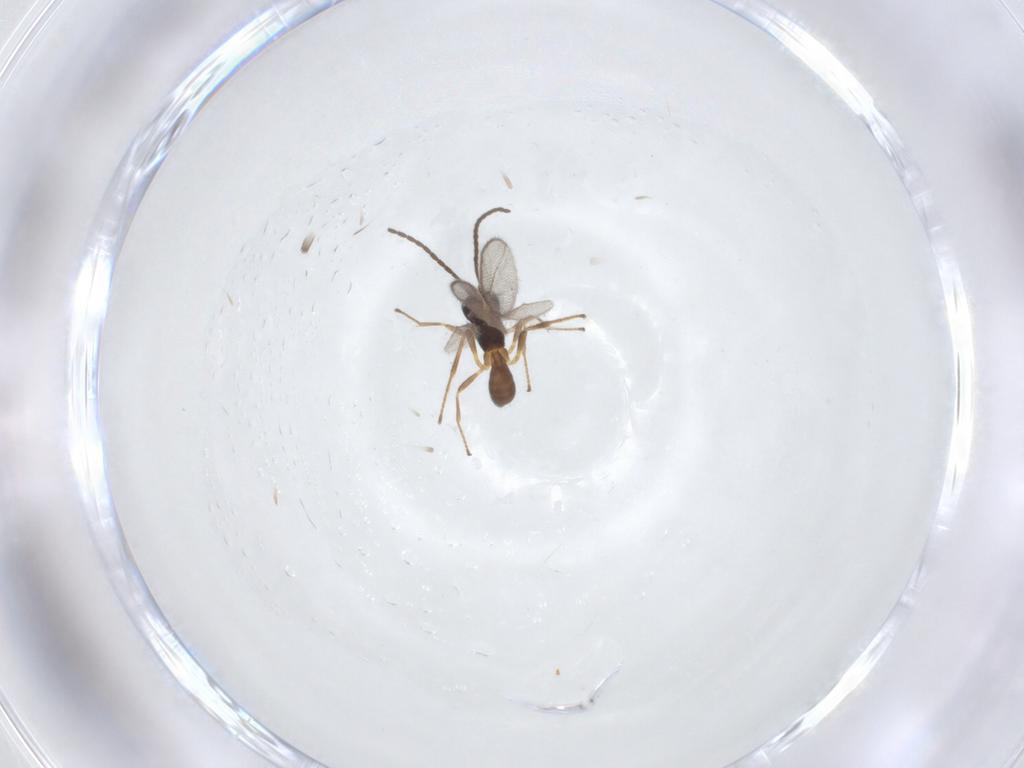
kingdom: Animalia
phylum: Arthropoda
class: Insecta
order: Hymenoptera
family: Braconidae
